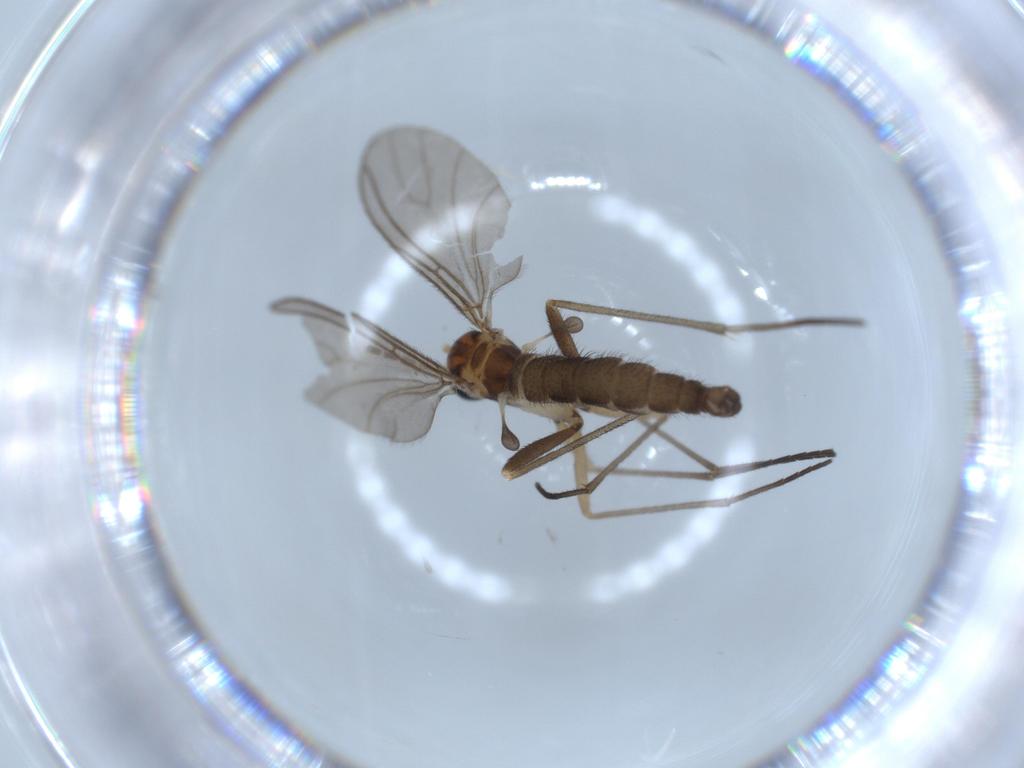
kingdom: Animalia
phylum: Arthropoda
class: Insecta
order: Diptera
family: Chironomidae
